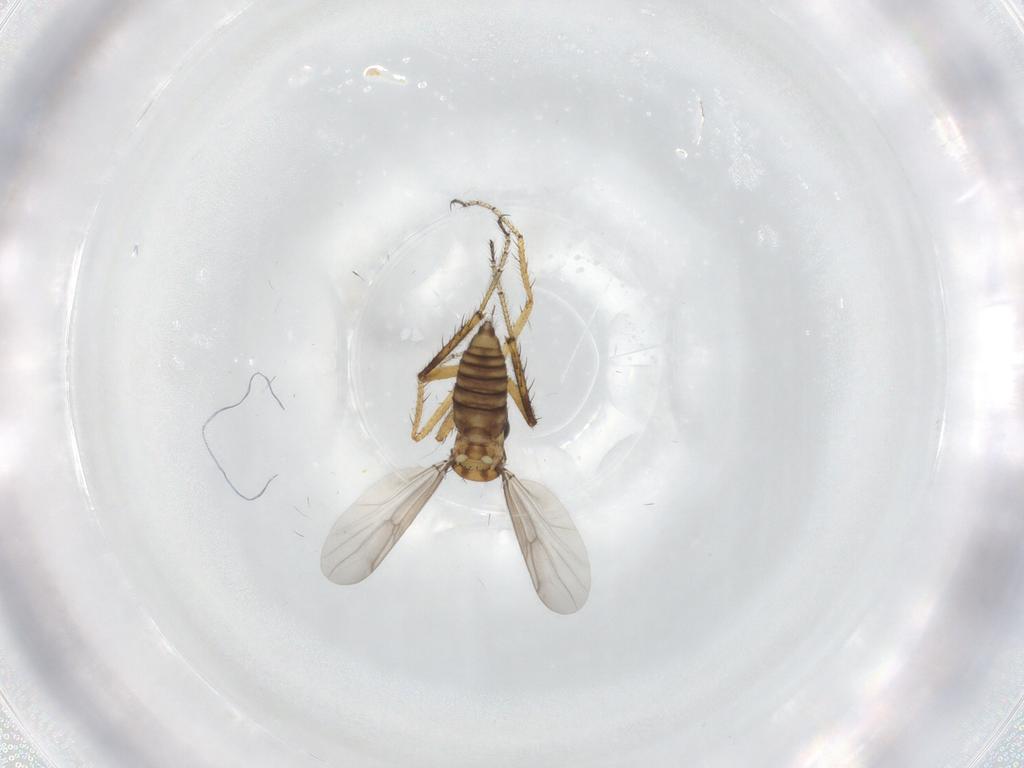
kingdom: Animalia
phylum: Arthropoda
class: Insecta
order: Diptera
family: Ceratopogonidae
